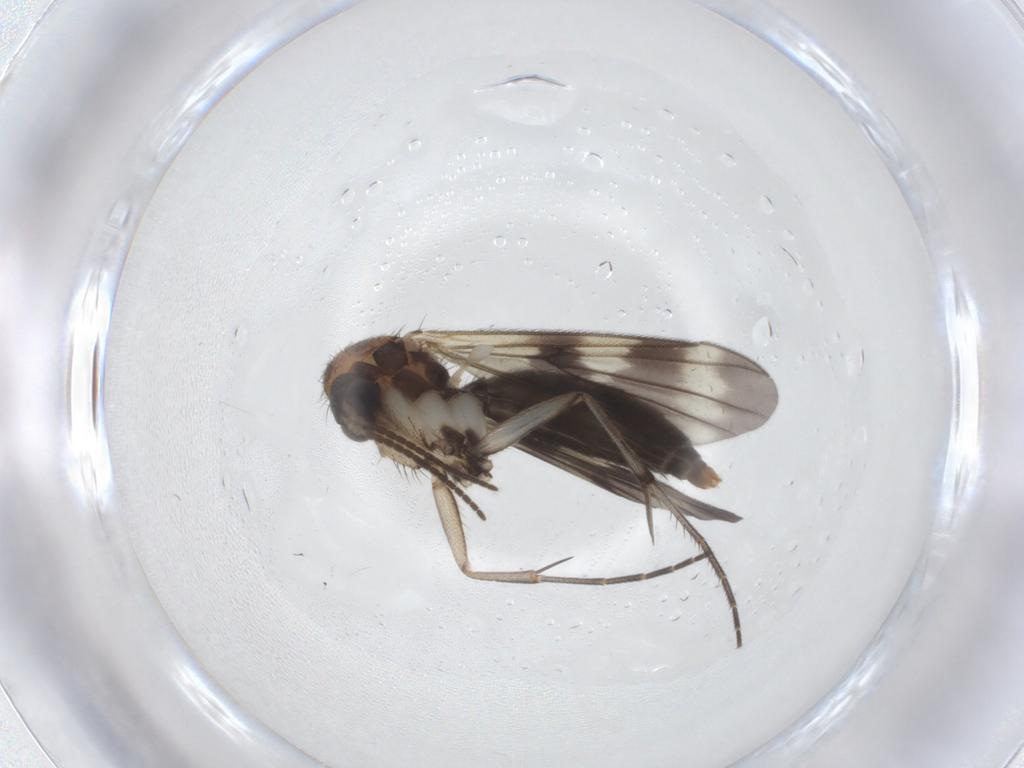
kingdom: Animalia
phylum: Arthropoda
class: Insecta
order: Diptera
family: Mycetophilidae
